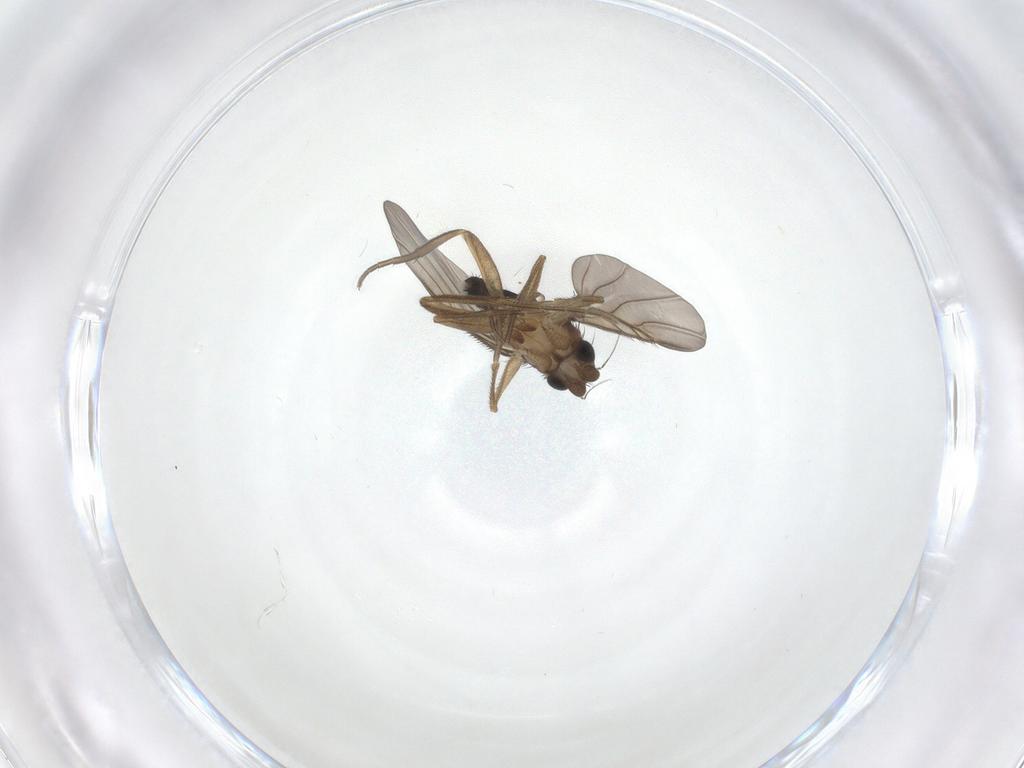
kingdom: Animalia
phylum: Arthropoda
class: Insecta
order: Diptera
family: Phoridae
